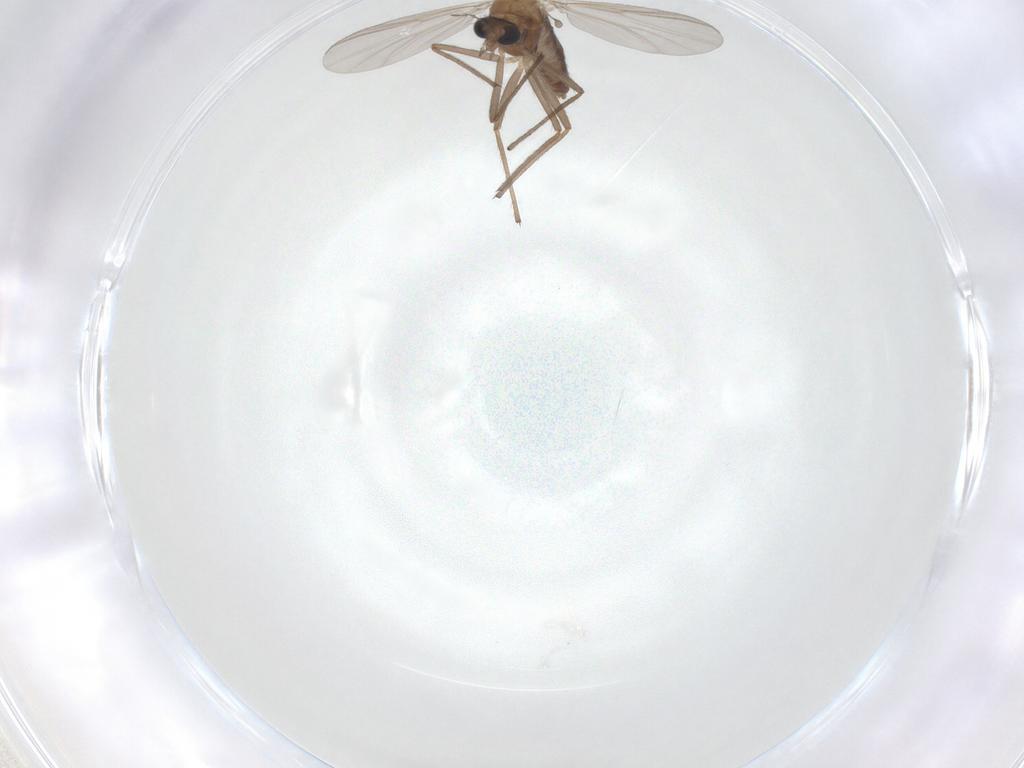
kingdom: Animalia
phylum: Arthropoda
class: Insecta
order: Diptera
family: Chironomidae
